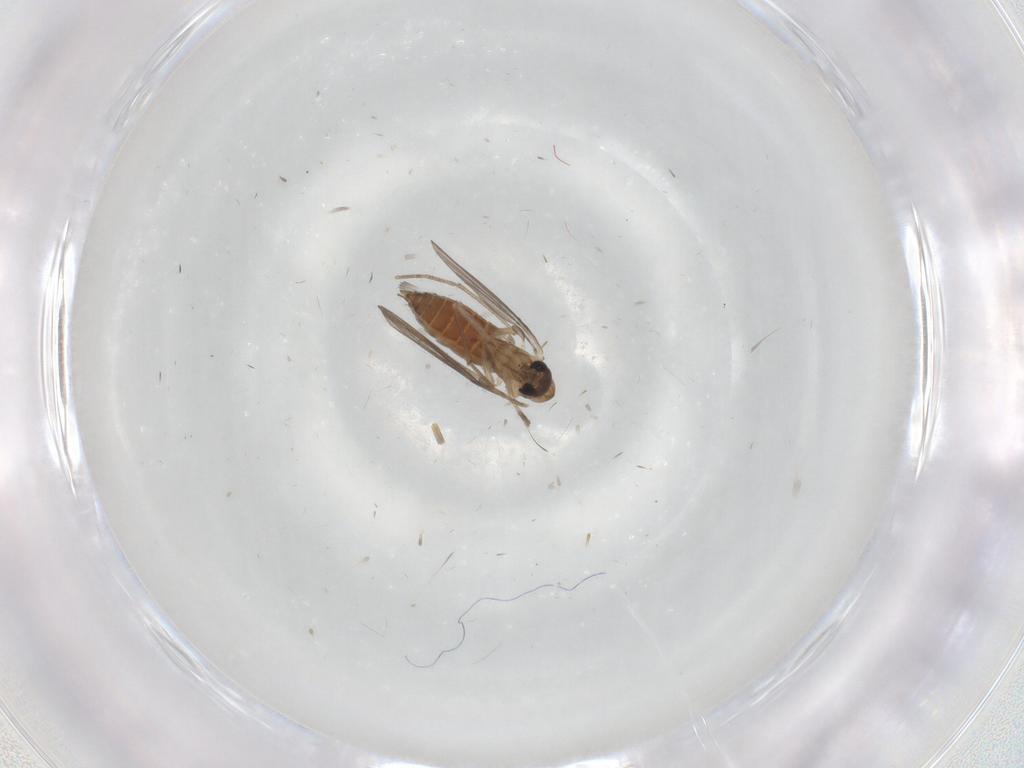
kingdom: Animalia
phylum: Arthropoda
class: Insecta
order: Diptera
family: Dolichopodidae
